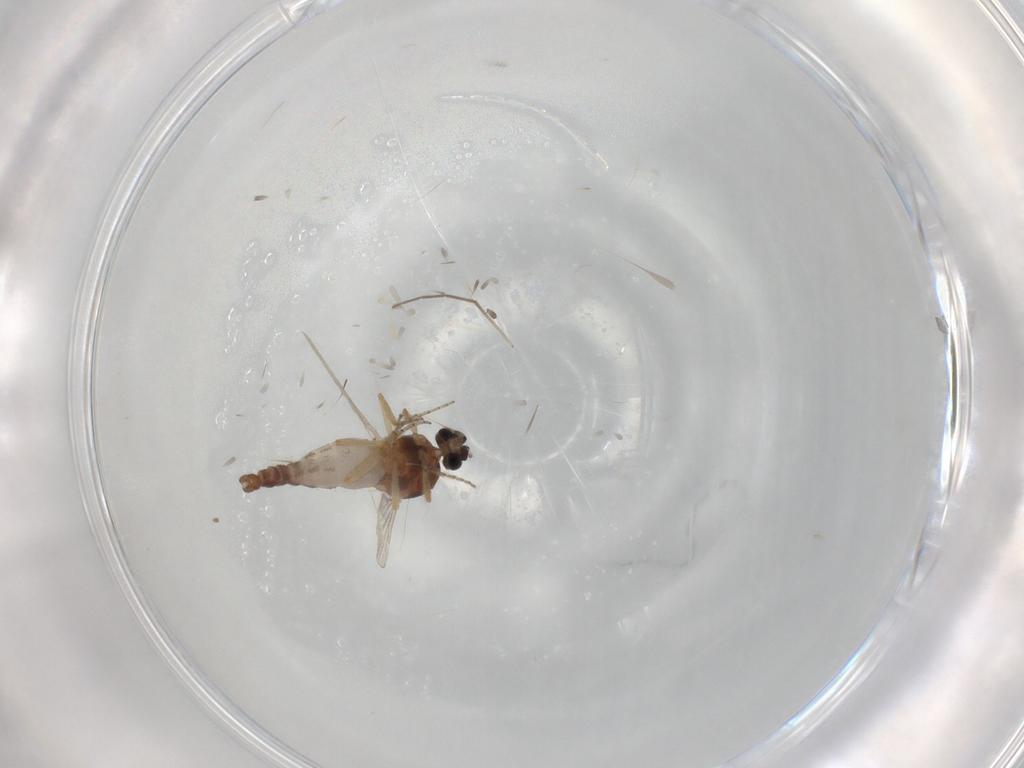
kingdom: Animalia
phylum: Arthropoda
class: Insecta
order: Diptera
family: Ceratopogonidae
